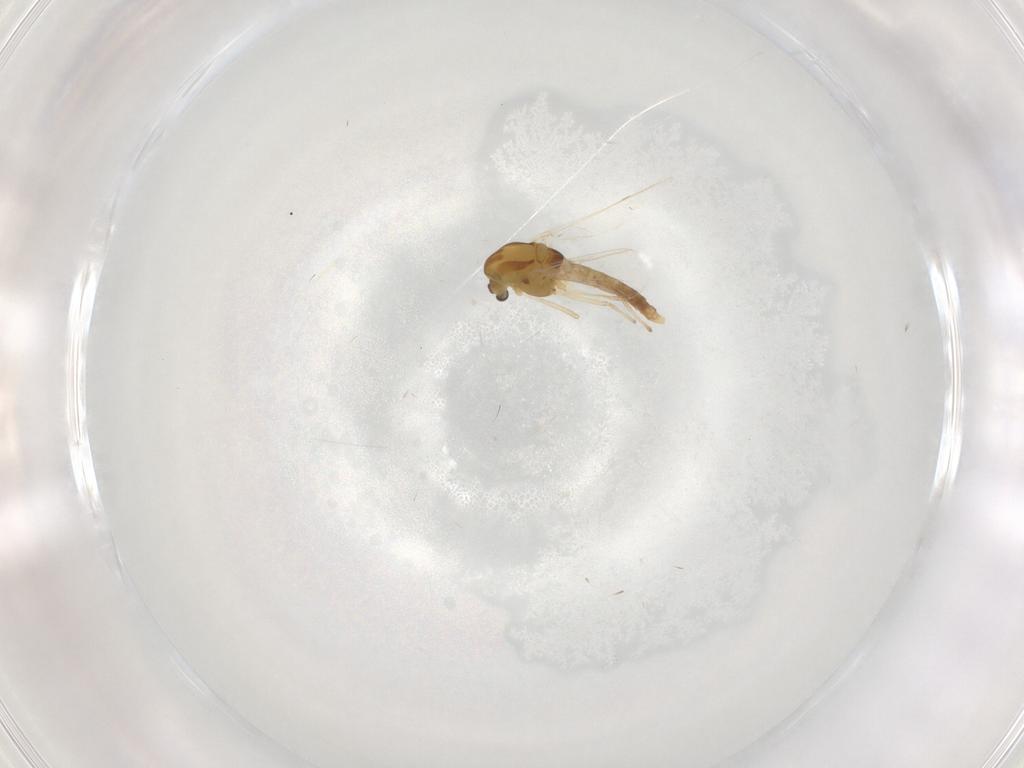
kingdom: Animalia
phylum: Arthropoda
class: Insecta
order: Diptera
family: Chironomidae
